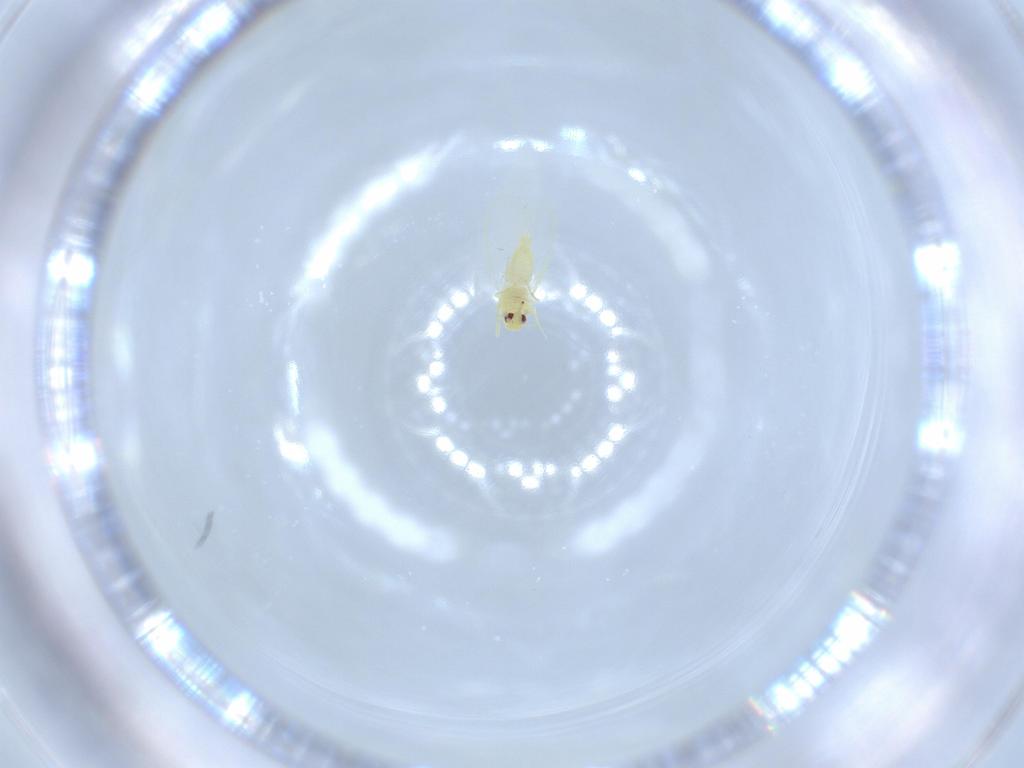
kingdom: Animalia
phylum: Arthropoda
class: Insecta
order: Hemiptera
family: Aleyrodidae
